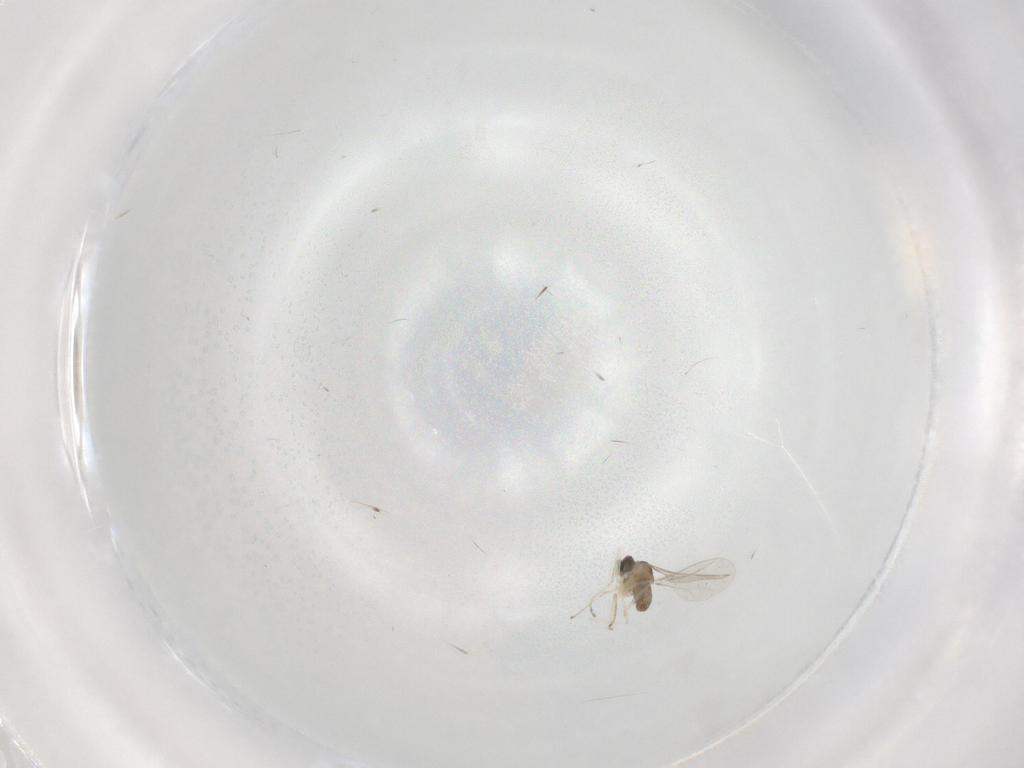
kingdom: Animalia
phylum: Arthropoda
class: Insecta
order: Diptera
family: Cecidomyiidae
